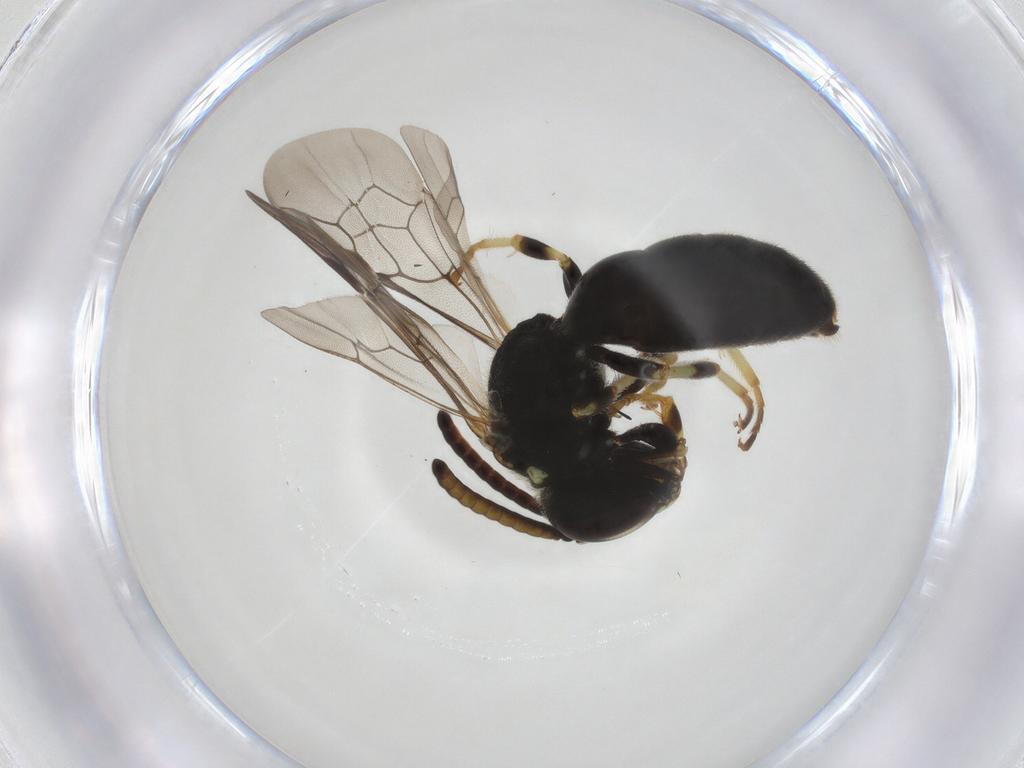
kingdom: Animalia
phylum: Arthropoda
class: Insecta
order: Hymenoptera
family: Colletidae
